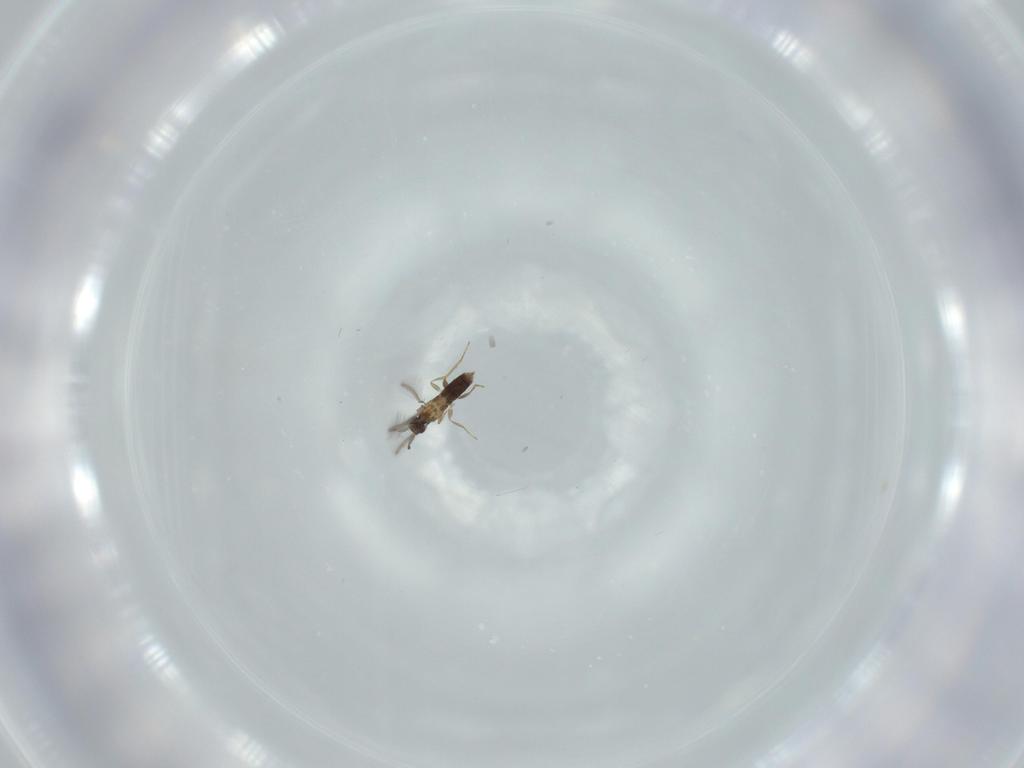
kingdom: Animalia
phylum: Arthropoda
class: Insecta
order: Hymenoptera
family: Mymaridae
